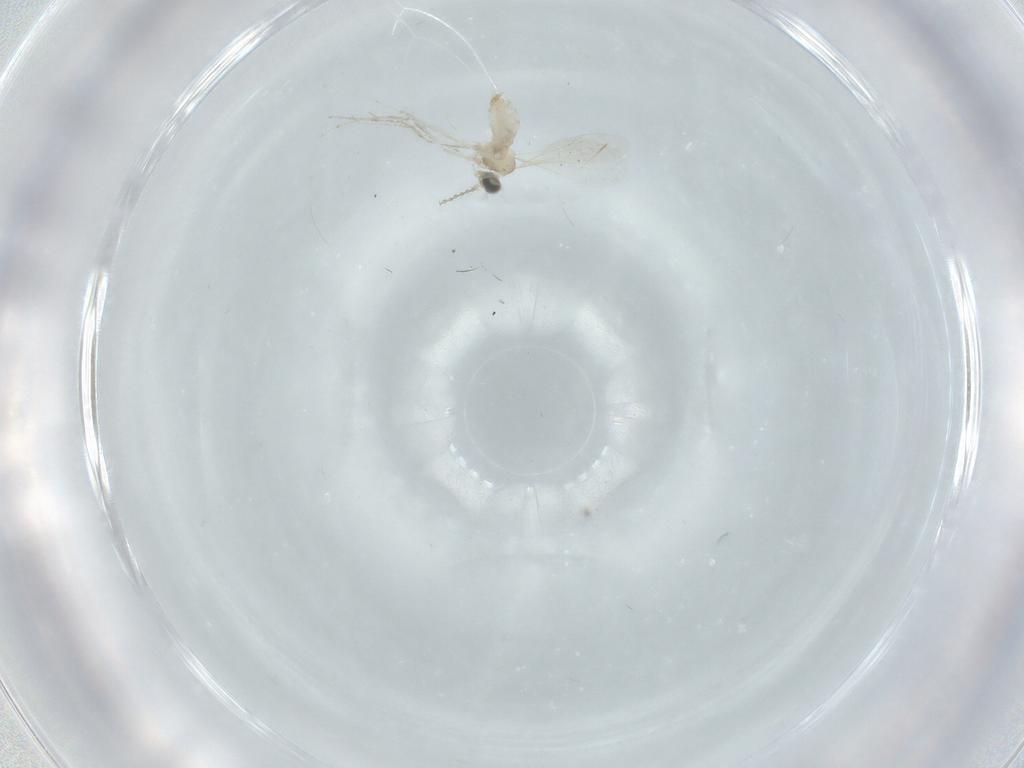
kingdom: Animalia
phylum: Arthropoda
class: Insecta
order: Diptera
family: Cecidomyiidae
